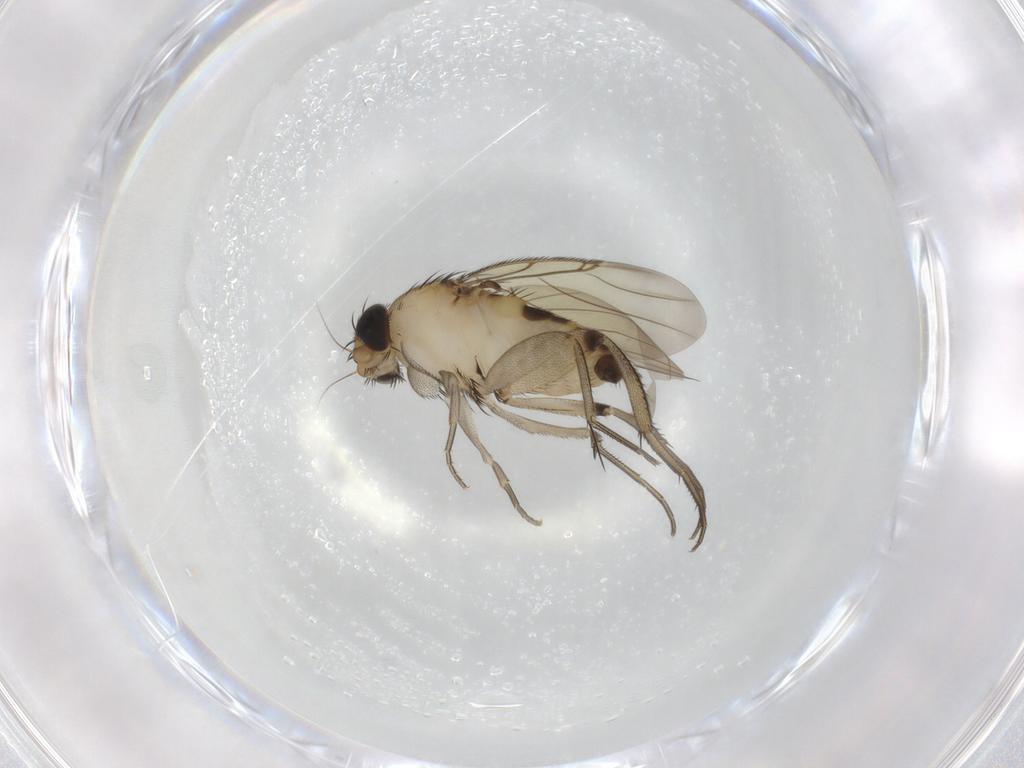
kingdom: Animalia
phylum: Arthropoda
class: Insecta
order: Diptera
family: Phoridae
